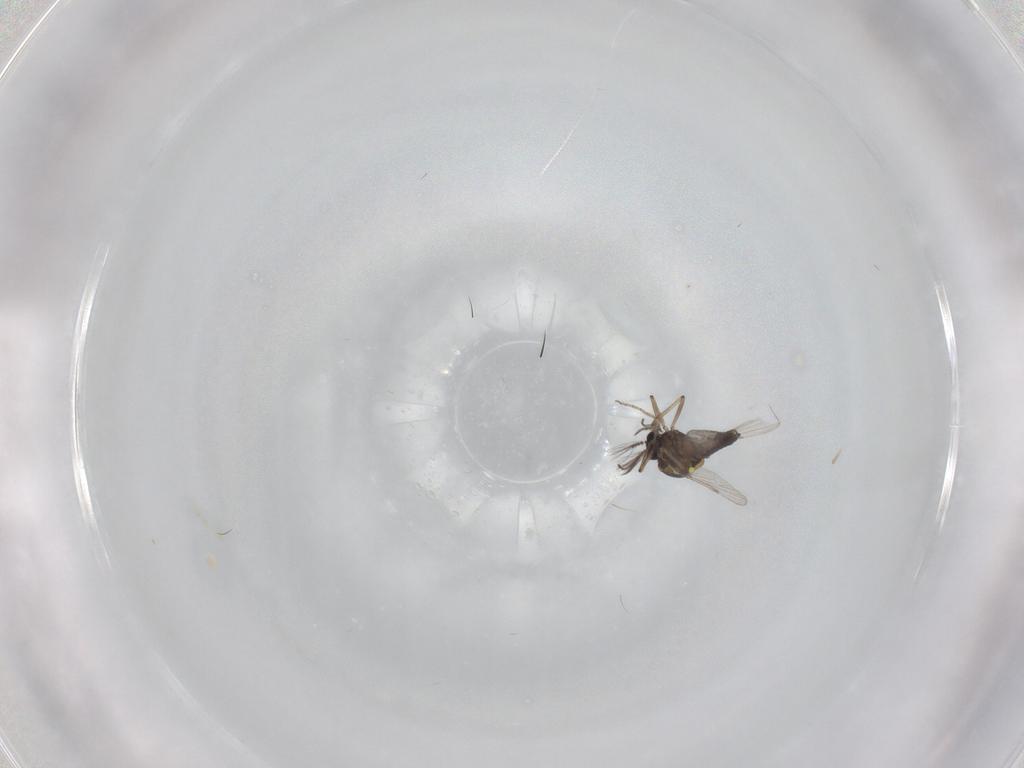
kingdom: Animalia
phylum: Arthropoda
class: Insecta
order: Diptera
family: Ceratopogonidae
